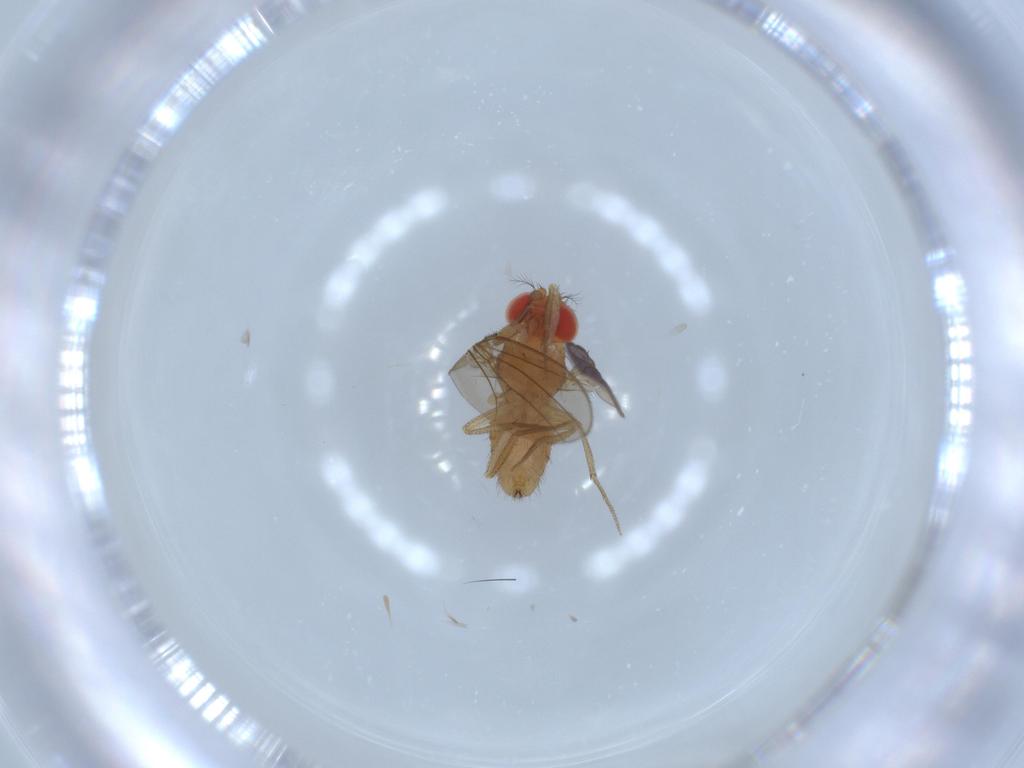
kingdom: Animalia
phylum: Arthropoda
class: Insecta
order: Diptera
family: Drosophilidae
